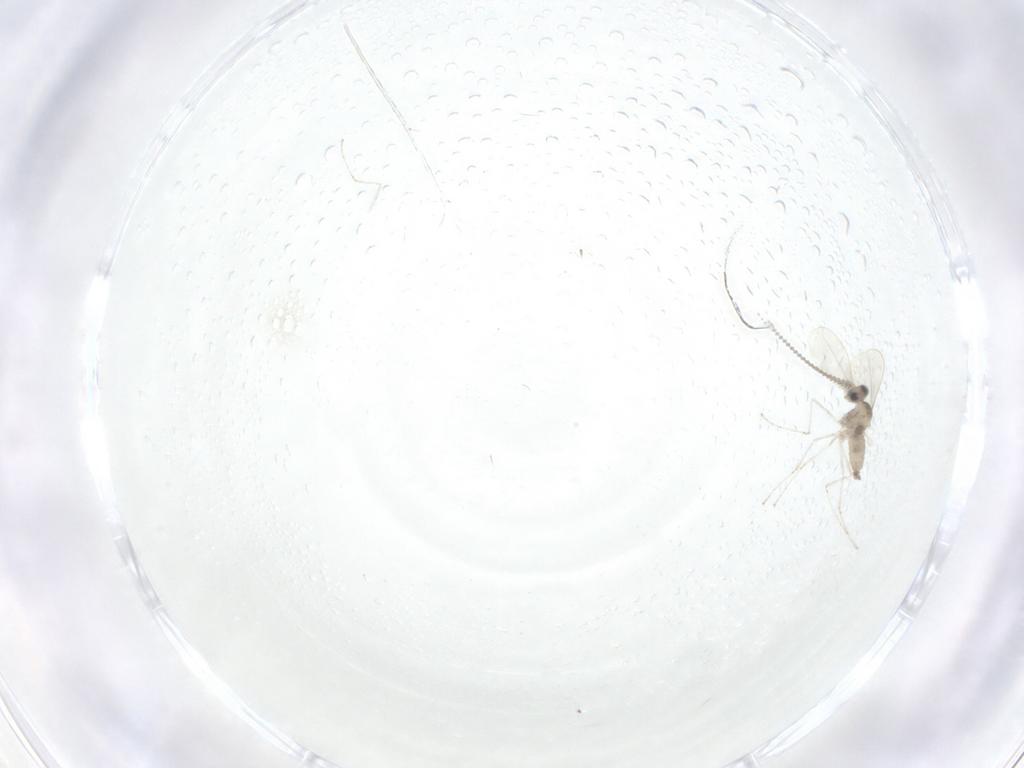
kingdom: Animalia
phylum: Arthropoda
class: Insecta
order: Diptera
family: Cecidomyiidae
